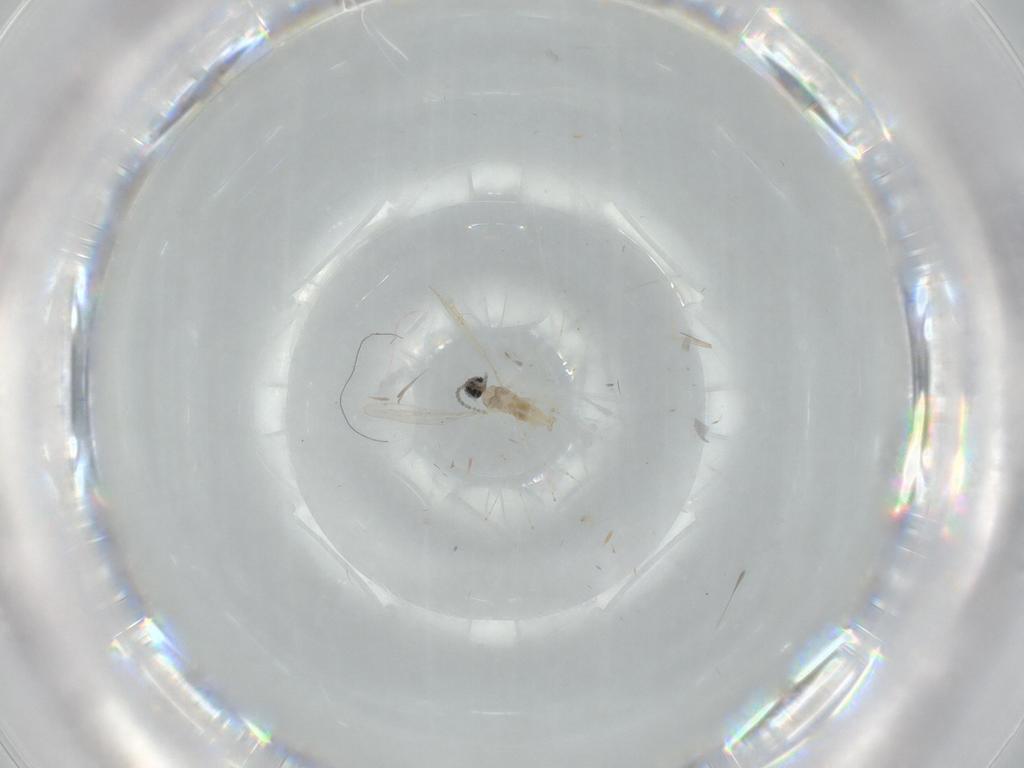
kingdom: Animalia
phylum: Arthropoda
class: Insecta
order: Diptera
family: Cecidomyiidae
